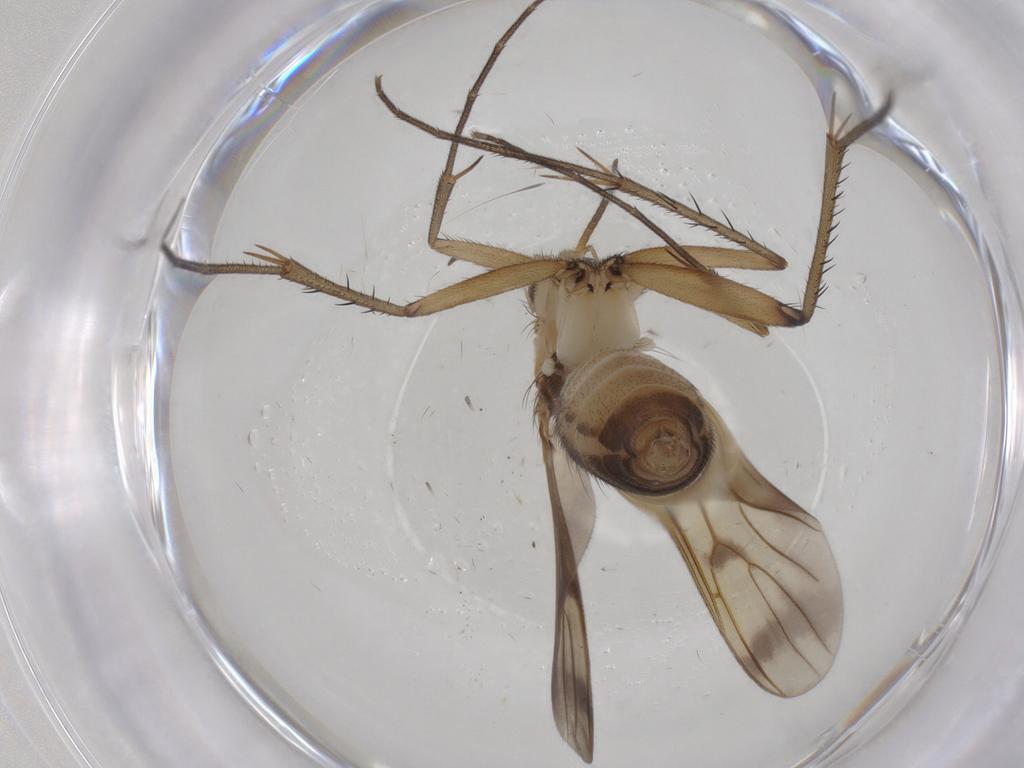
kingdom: Animalia
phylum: Arthropoda
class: Insecta
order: Diptera
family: Mycetophilidae
